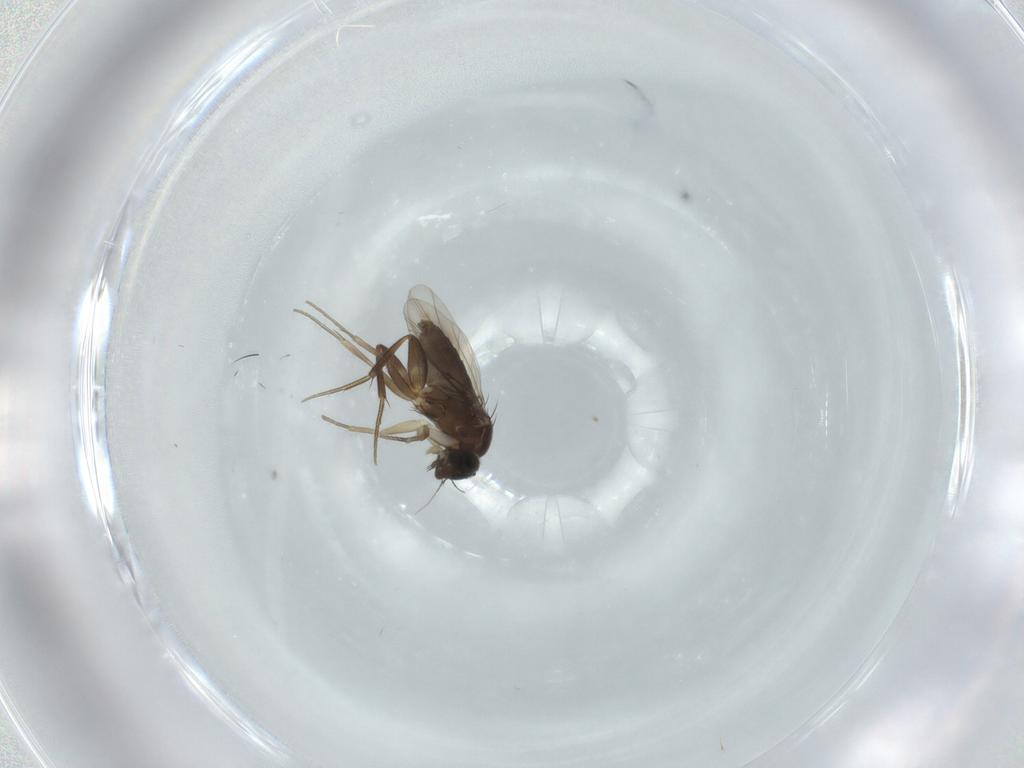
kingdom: Animalia
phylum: Arthropoda
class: Insecta
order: Diptera
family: Phoridae
